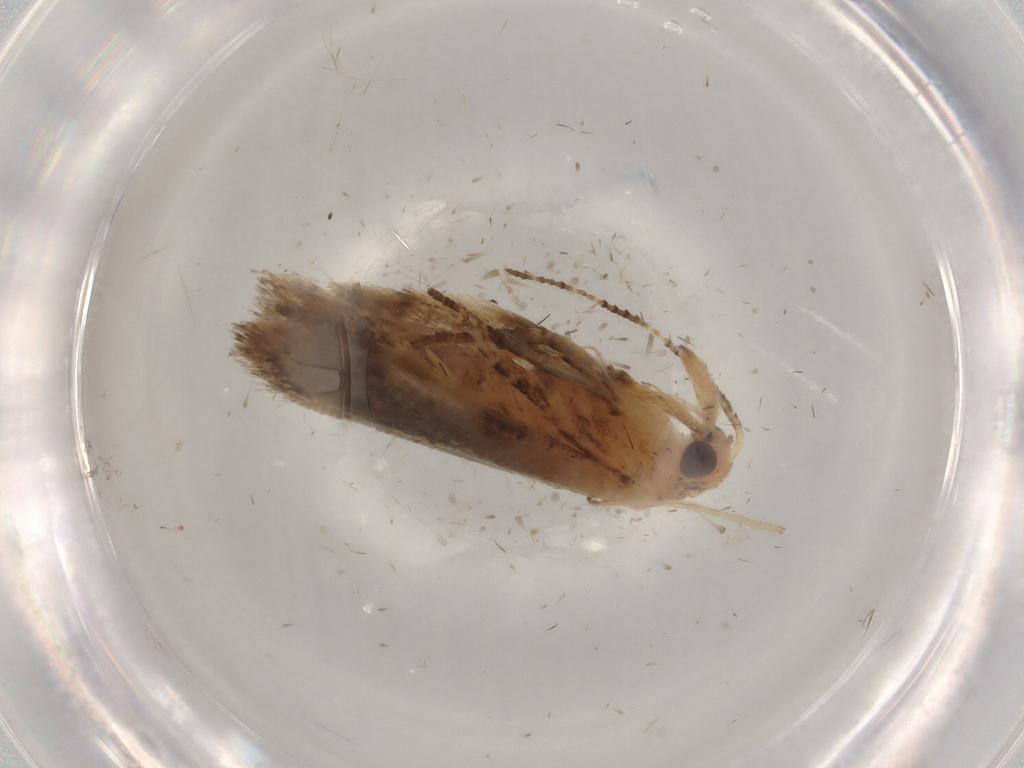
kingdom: Animalia
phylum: Arthropoda
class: Insecta
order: Lepidoptera
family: Ypsolophidae
